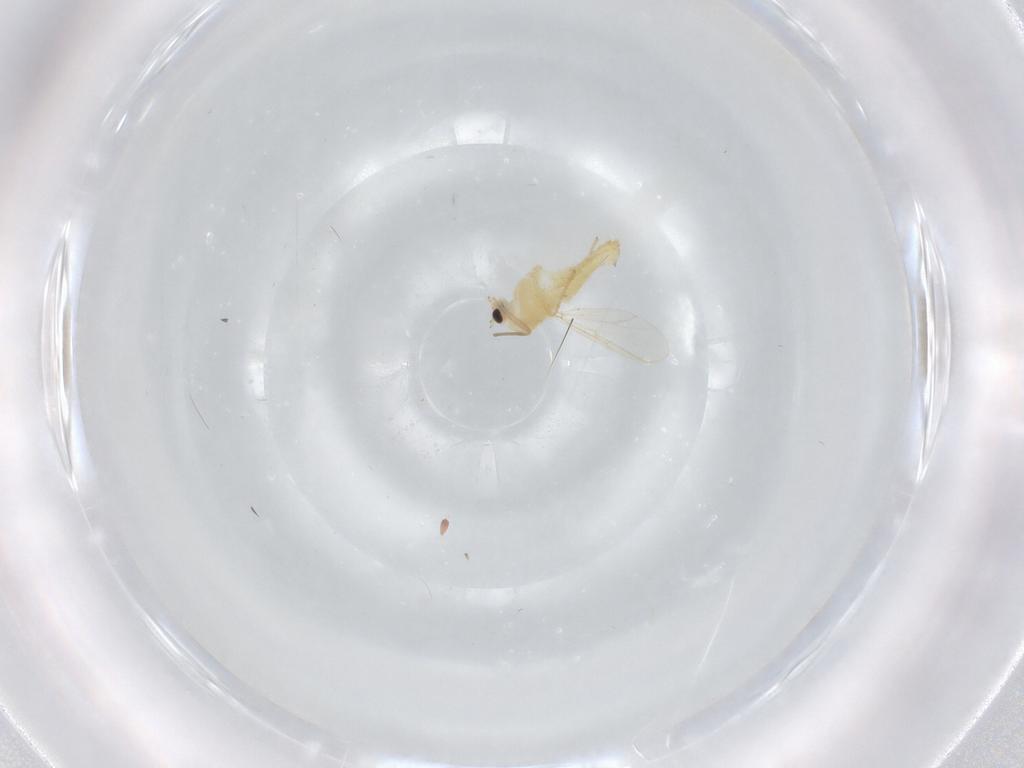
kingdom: Animalia
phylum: Arthropoda
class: Insecta
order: Diptera
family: Chironomidae
